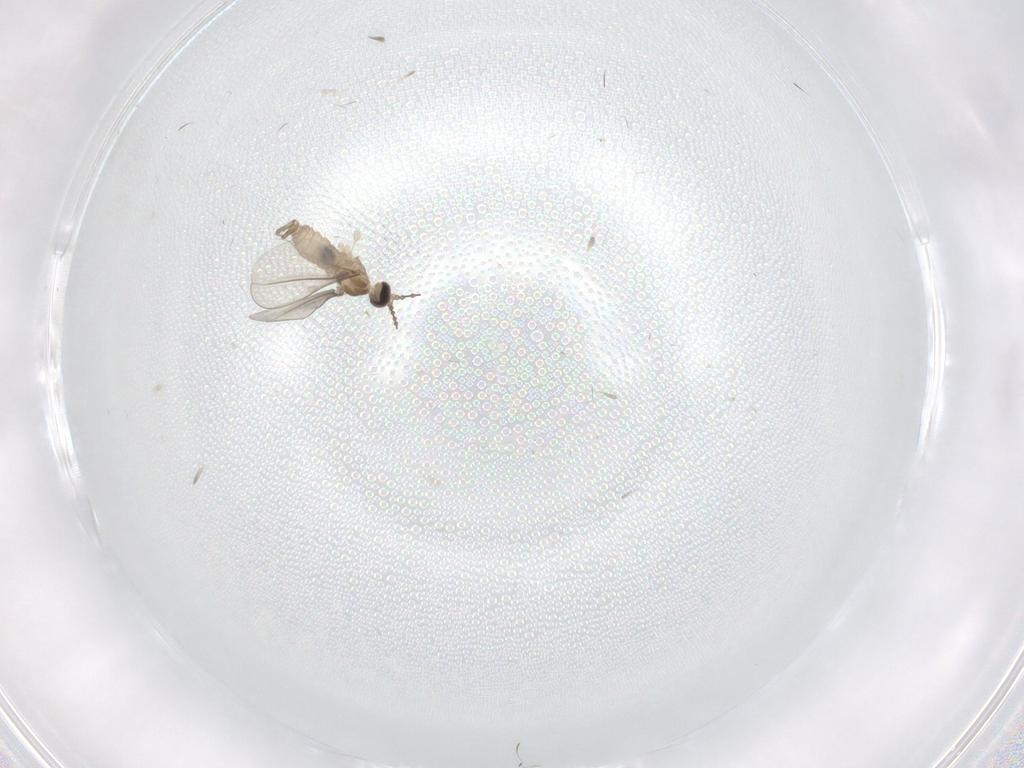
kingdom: Animalia
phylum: Arthropoda
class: Insecta
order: Diptera
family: Cecidomyiidae
